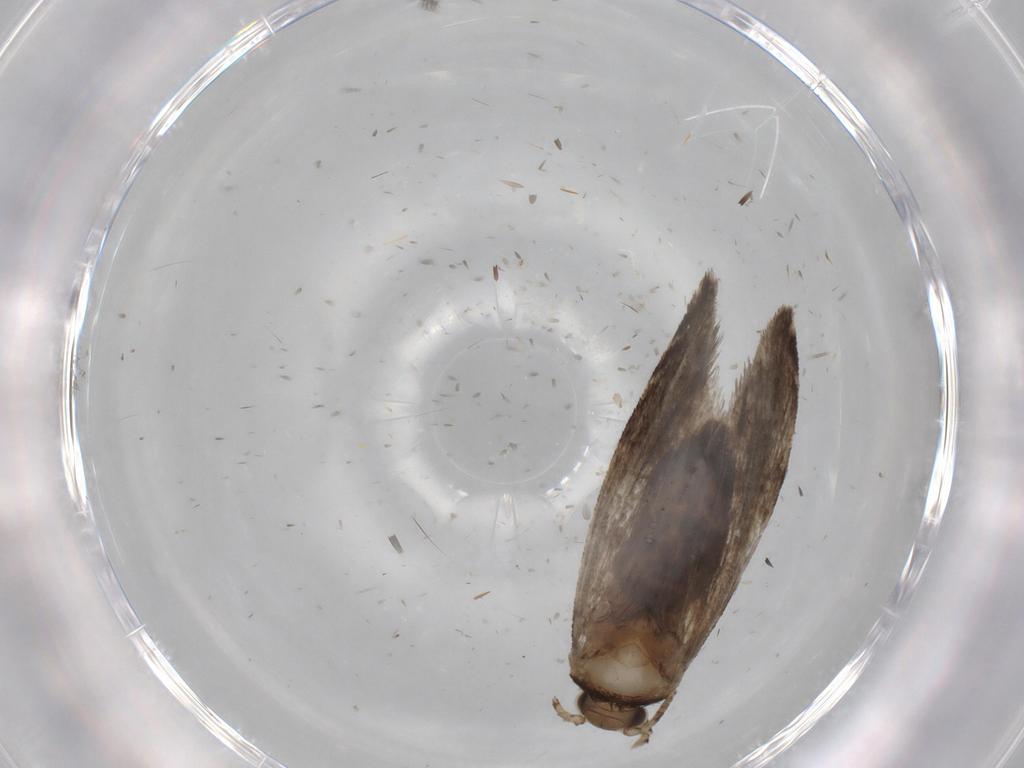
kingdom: Animalia
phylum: Arthropoda
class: Insecta
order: Lepidoptera
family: Dryadaulidae
